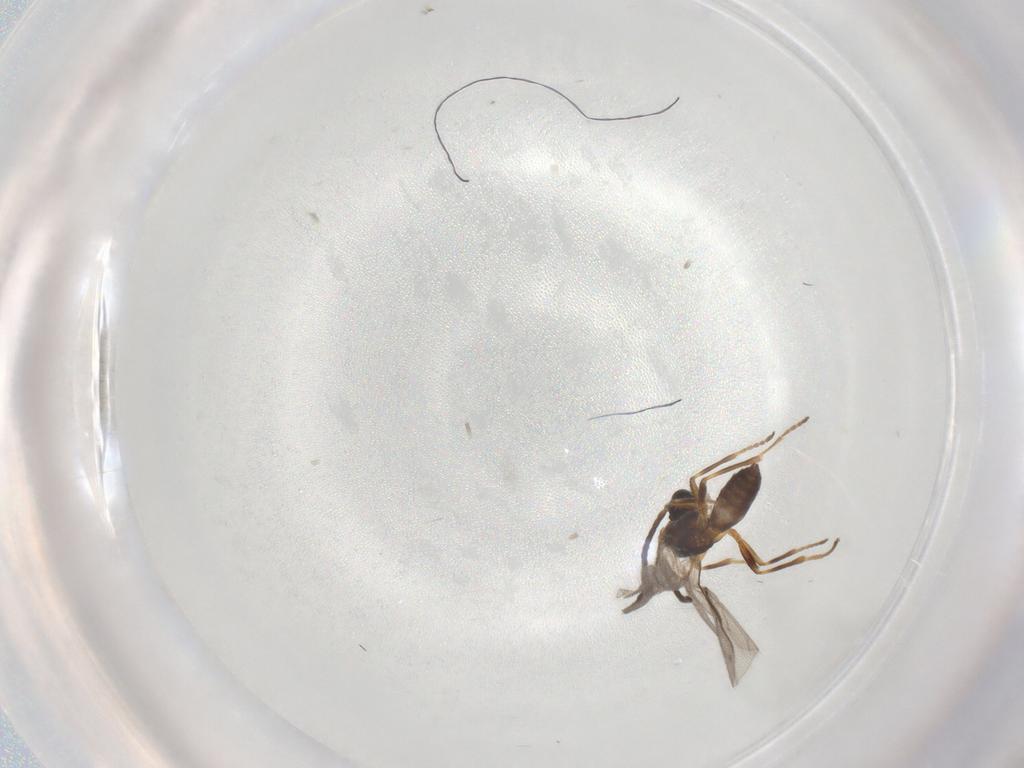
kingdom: Animalia
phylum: Arthropoda
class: Insecta
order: Hymenoptera
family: Braconidae
